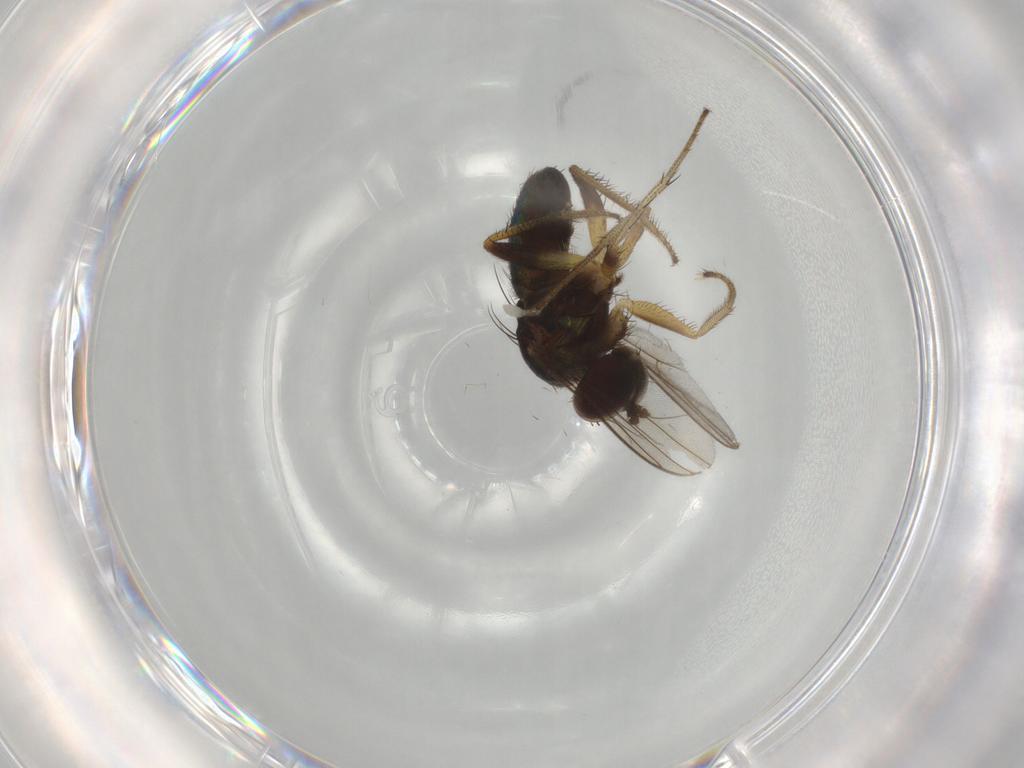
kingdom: Animalia
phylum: Arthropoda
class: Insecta
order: Diptera
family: Dolichopodidae
